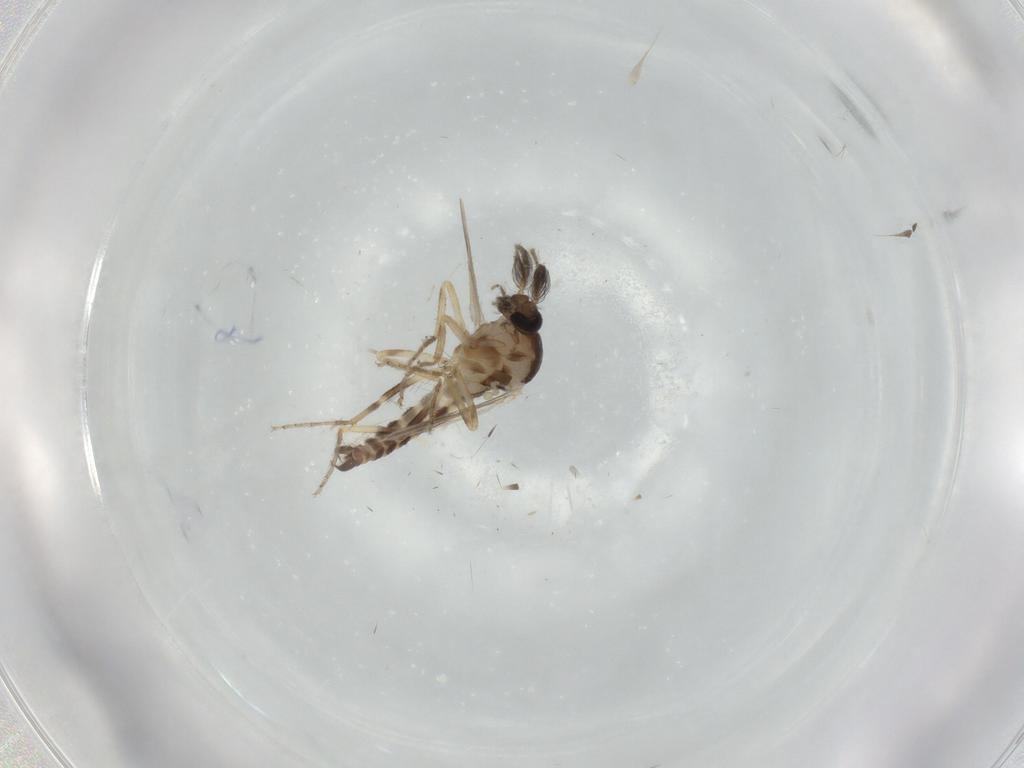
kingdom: Animalia
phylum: Arthropoda
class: Insecta
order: Diptera
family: Ceratopogonidae
